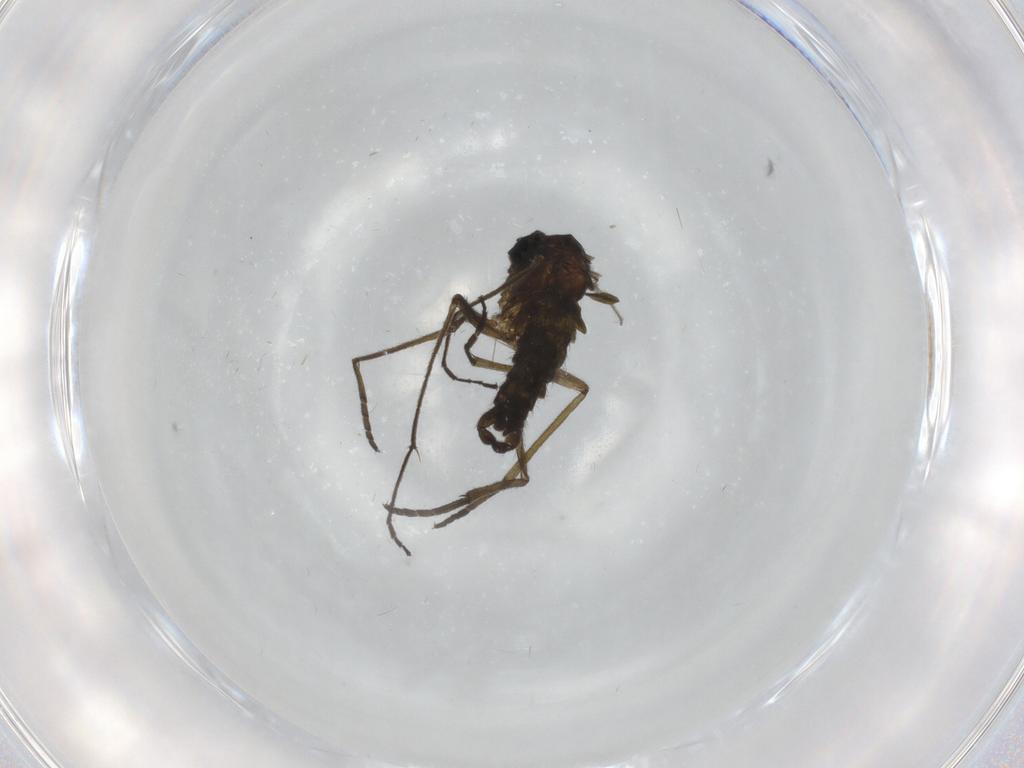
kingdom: Animalia
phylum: Arthropoda
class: Insecta
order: Diptera
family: Sciaridae
